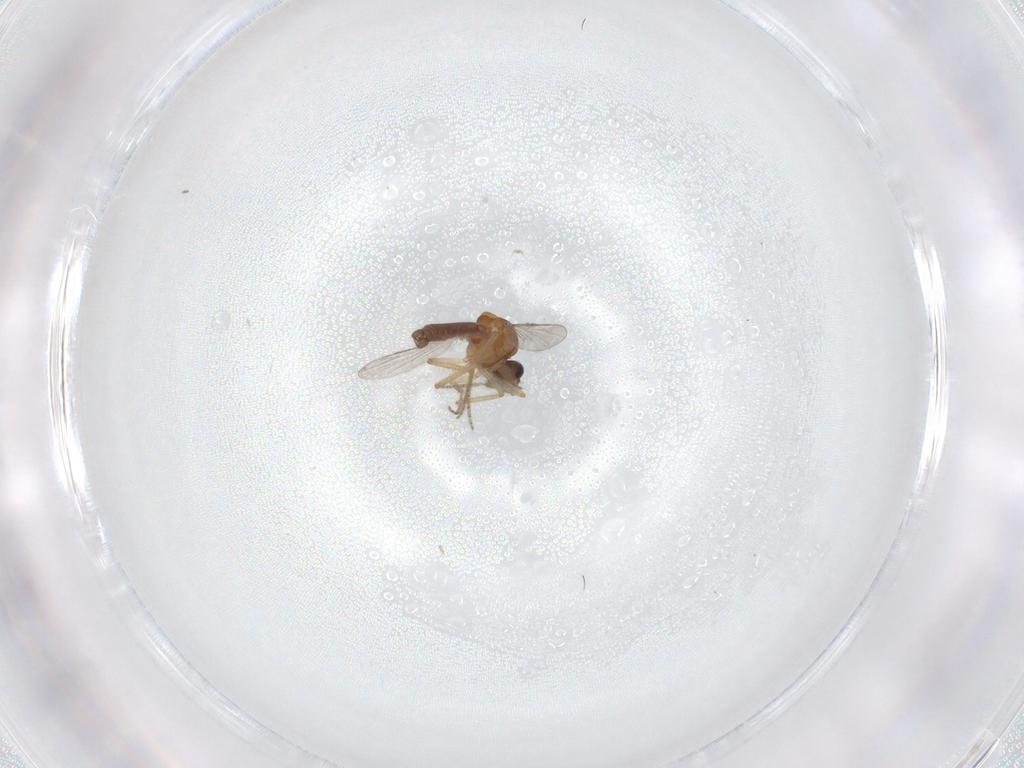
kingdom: Animalia
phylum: Arthropoda
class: Insecta
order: Diptera
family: Ceratopogonidae
